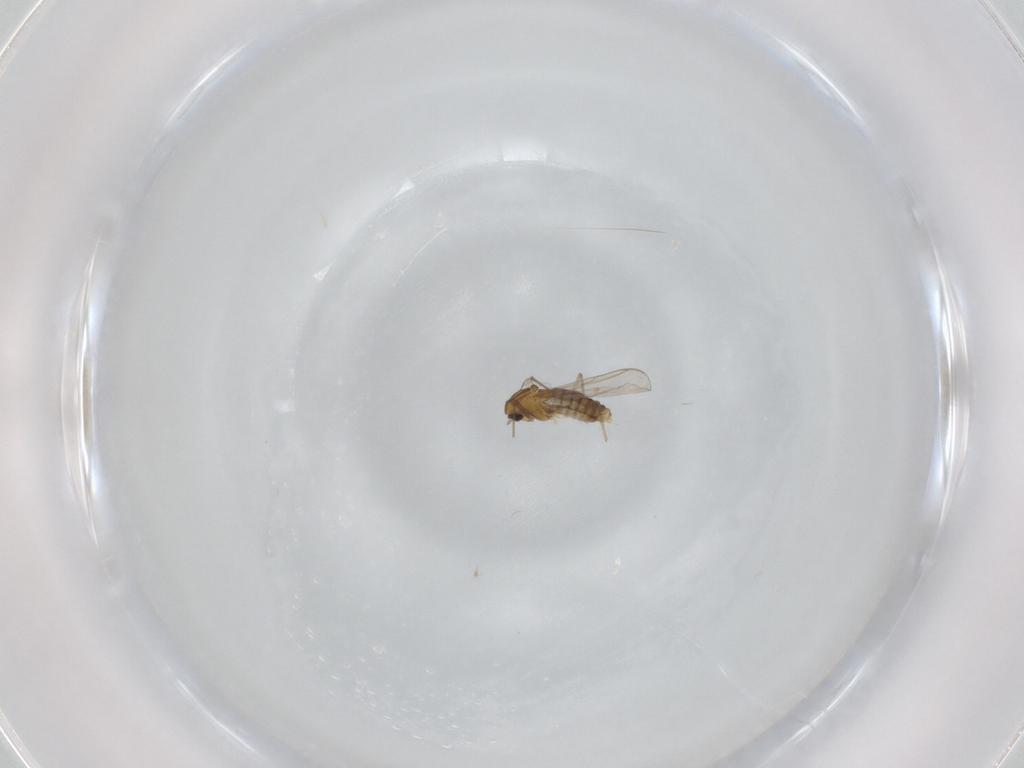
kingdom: Animalia
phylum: Arthropoda
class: Insecta
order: Diptera
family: Chironomidae
